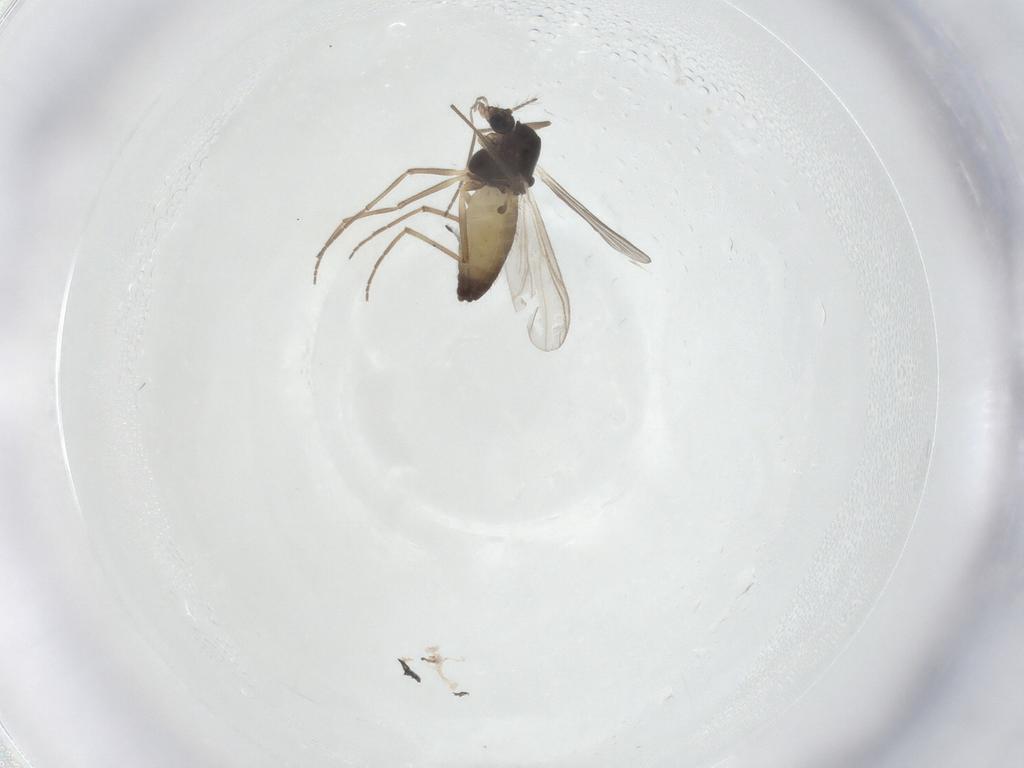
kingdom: Animalia
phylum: Arthropoda
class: Insecta
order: Diptera
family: Chironomidae
